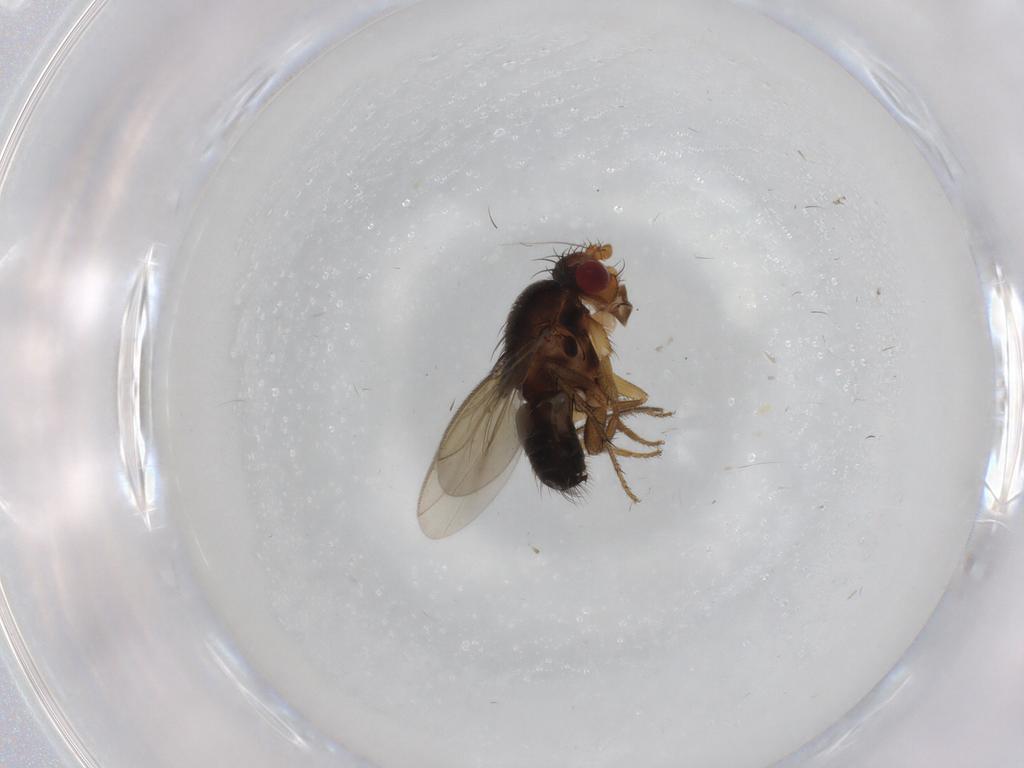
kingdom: Animalia
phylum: Arthropoda
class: Insecta
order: Diptera
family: Sphaeroceridae
